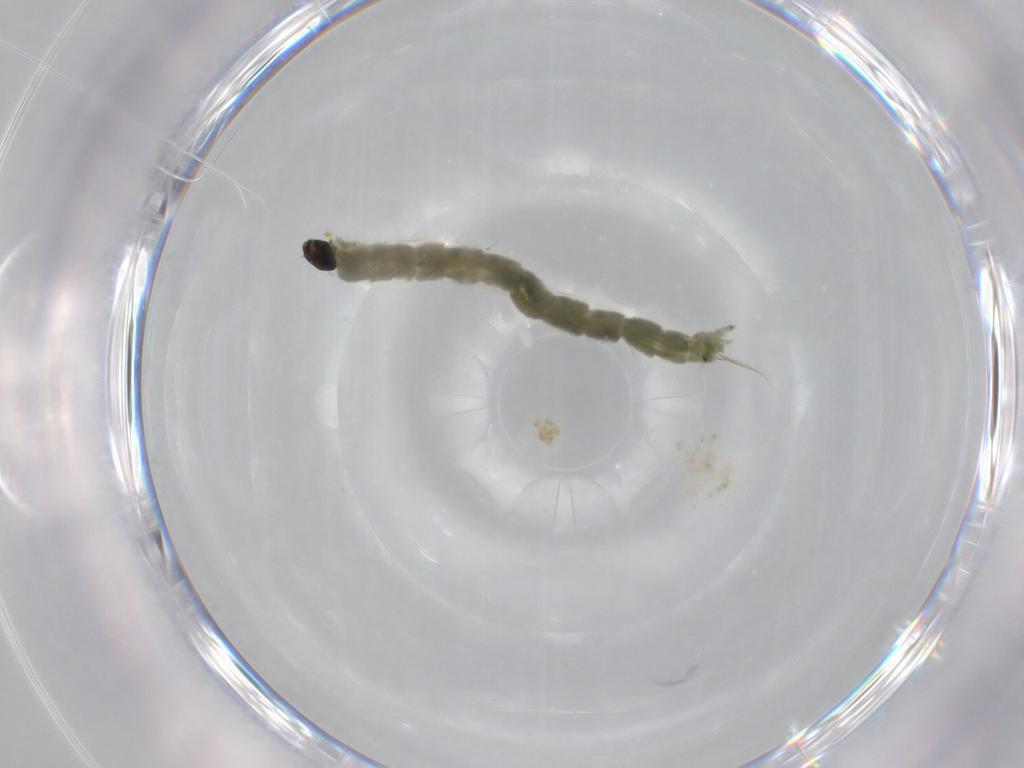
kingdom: Animalia
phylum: Arthropoda
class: Insecta
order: Diptera
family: Chironomidae
